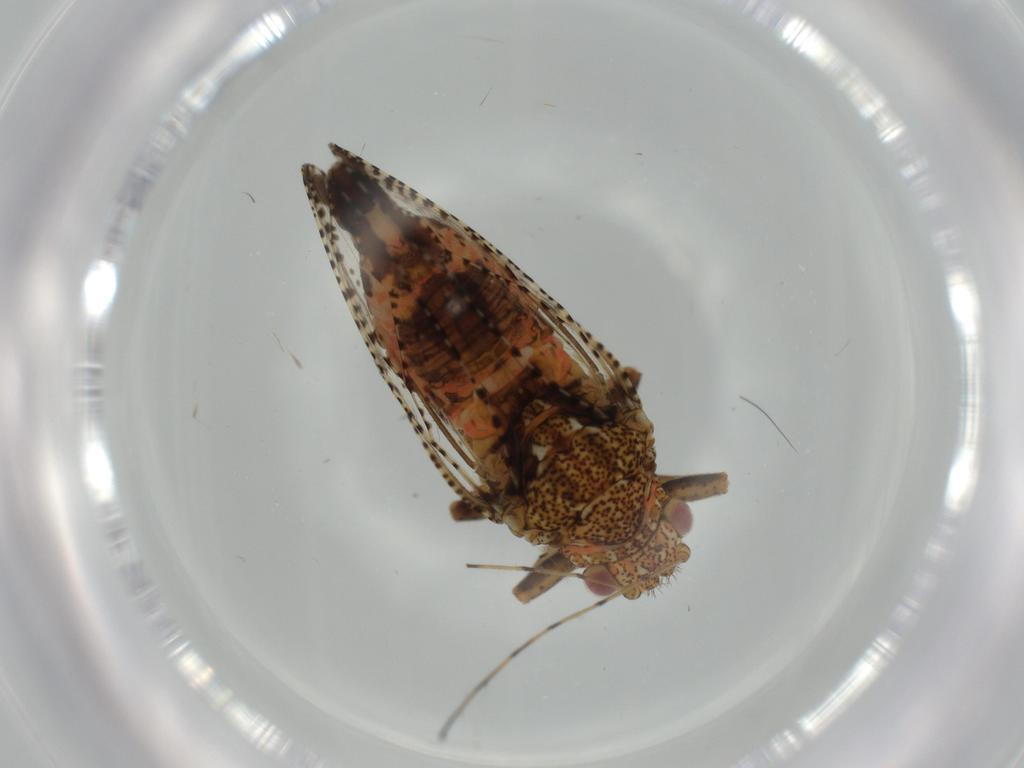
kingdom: Animalia
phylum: Arthropoda
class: Insecta
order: Hemiptera
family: Psyllidae
